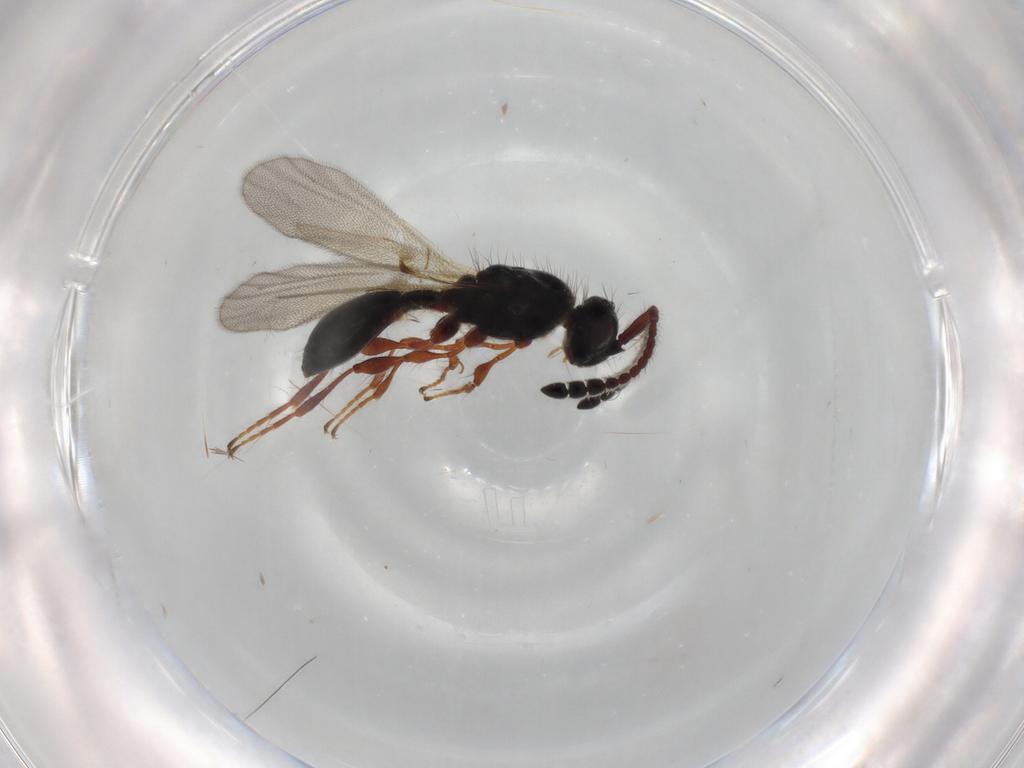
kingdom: Animalia
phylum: Arthropoda
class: Insecta
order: Hymenoptera
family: Diapriidae
